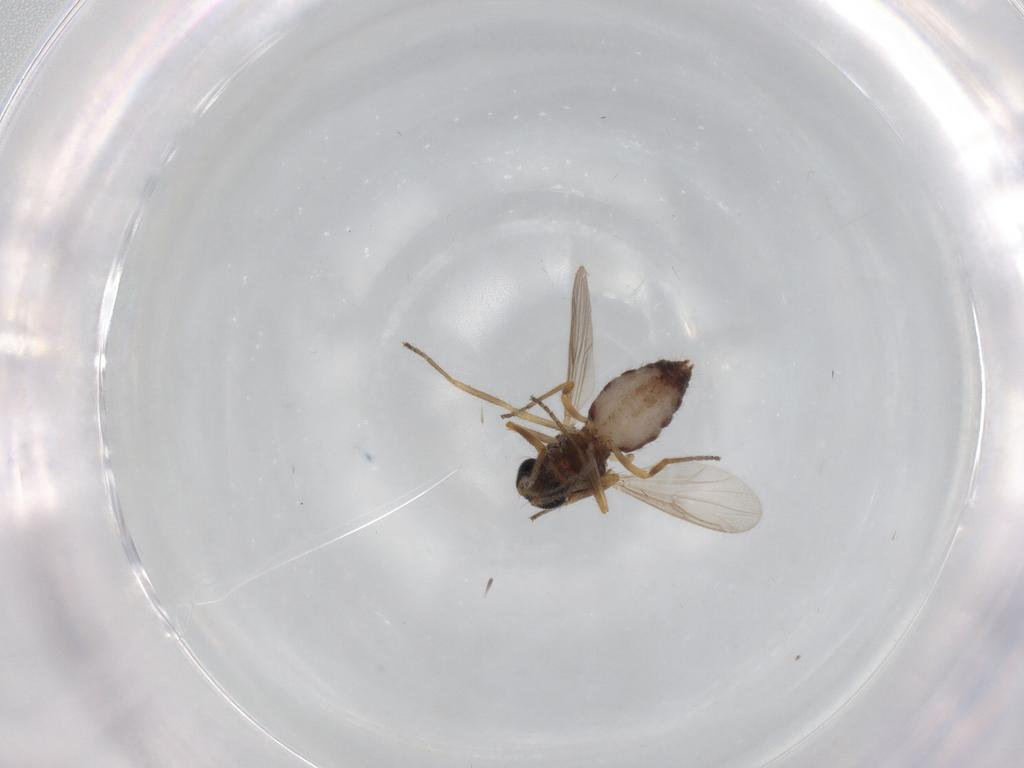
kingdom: Animalia
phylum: Arthropoda
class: Insecta
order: Diptera
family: Ceratopogonidae
